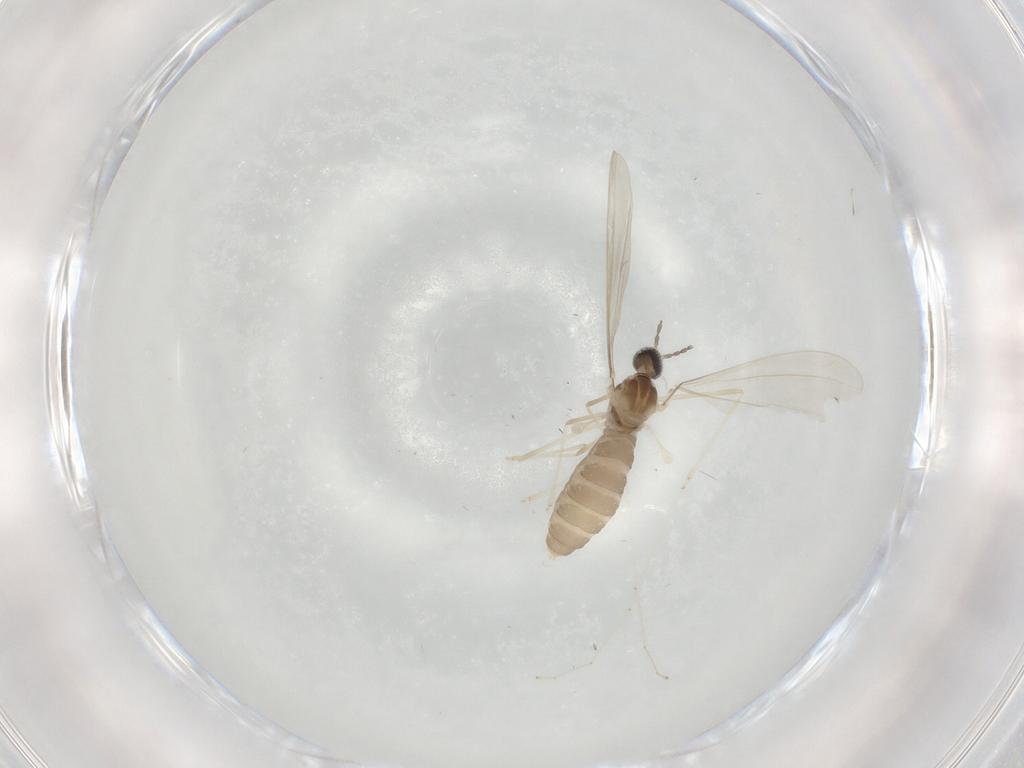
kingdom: Animalia
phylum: Arthropoda
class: Insecta
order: Diptera
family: Cecidomyiidae
